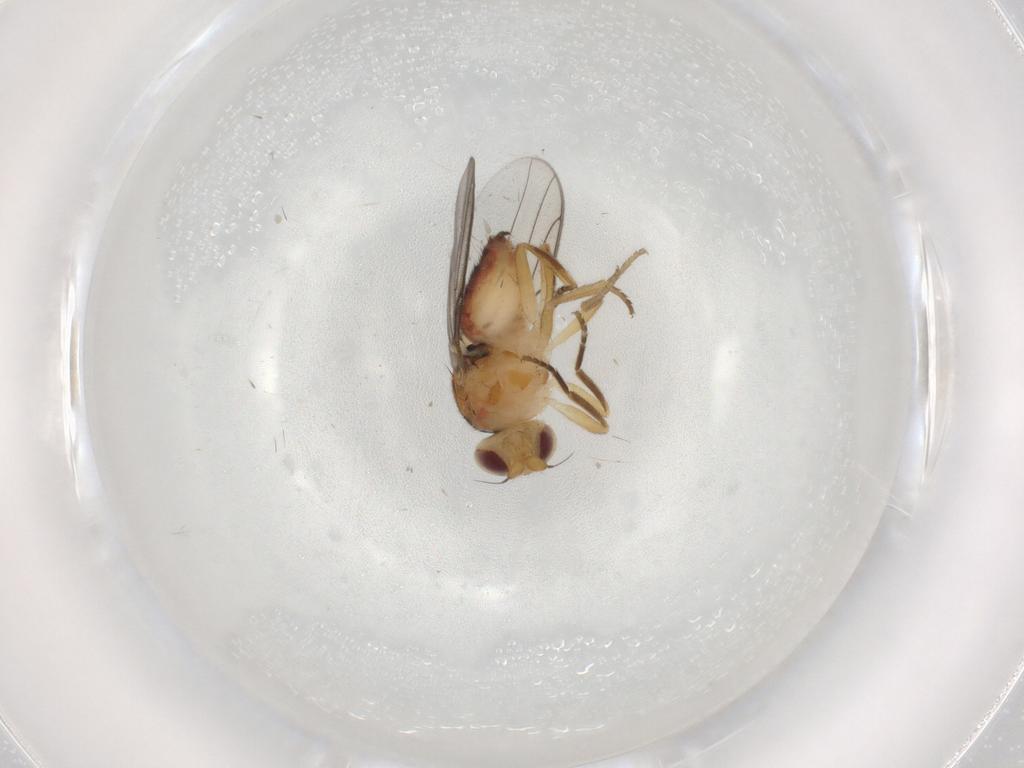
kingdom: Animalia
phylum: Arthropoda
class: Insecta
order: Diptera
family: Chloropidae
